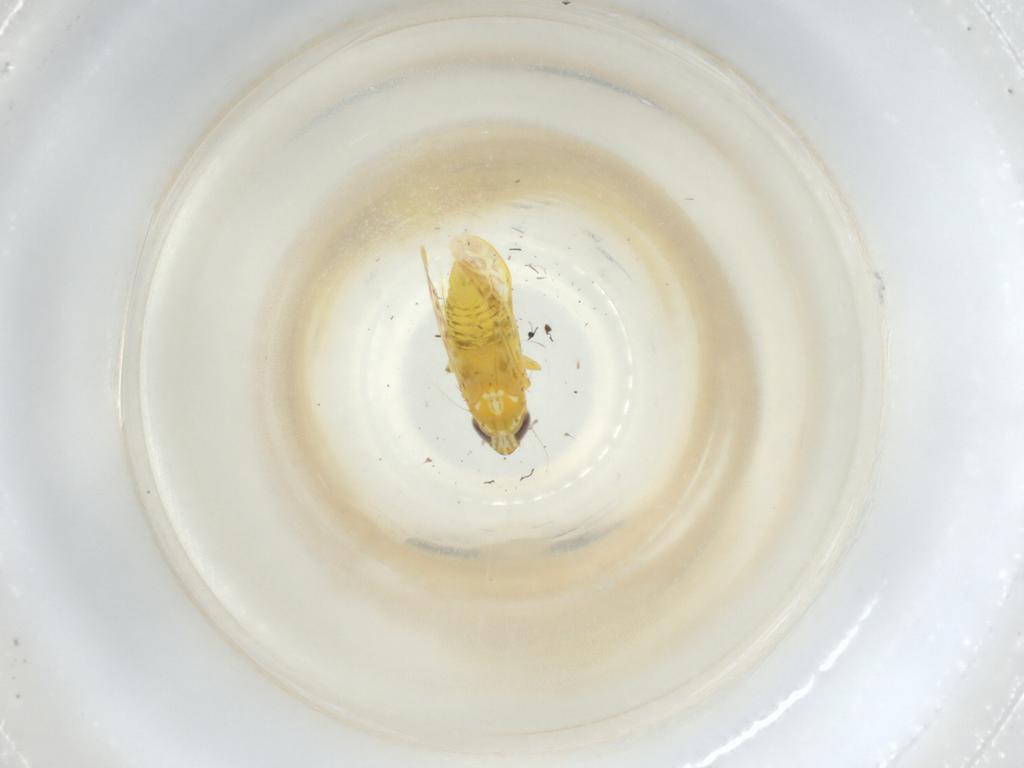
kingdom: Animalia
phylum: Arthropoda
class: Insecta
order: Hemiptera
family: Cicadellidae
